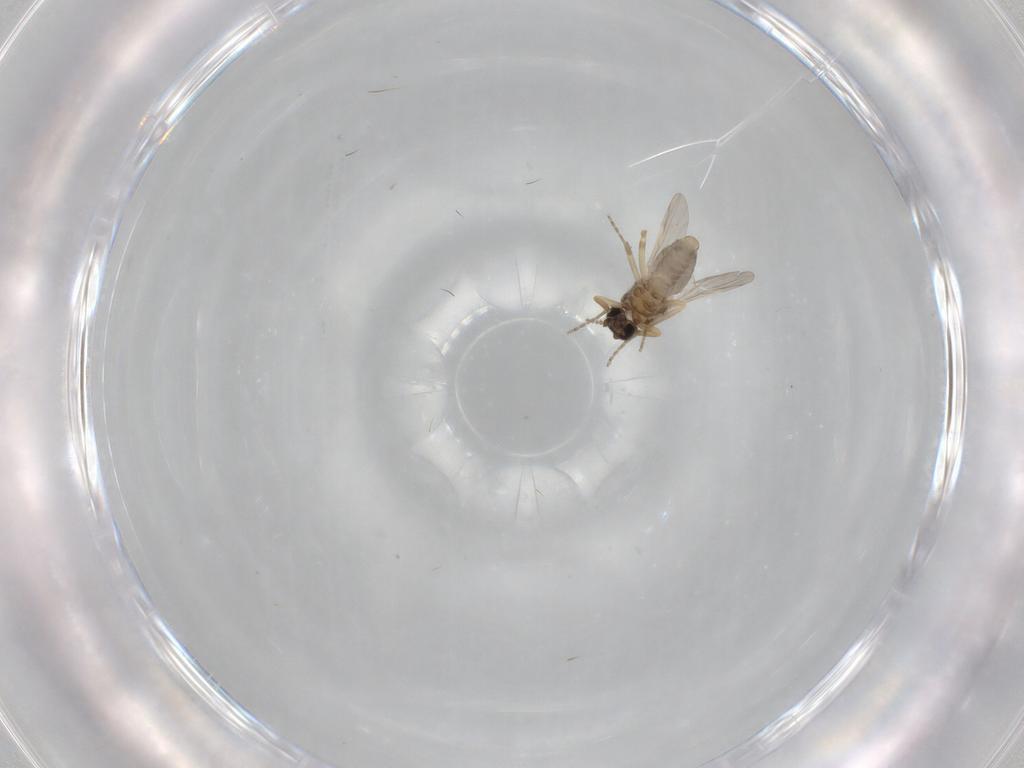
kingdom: Animalia
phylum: Arthropoda
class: Insecta
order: Diptera
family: Ceratopogonidae
